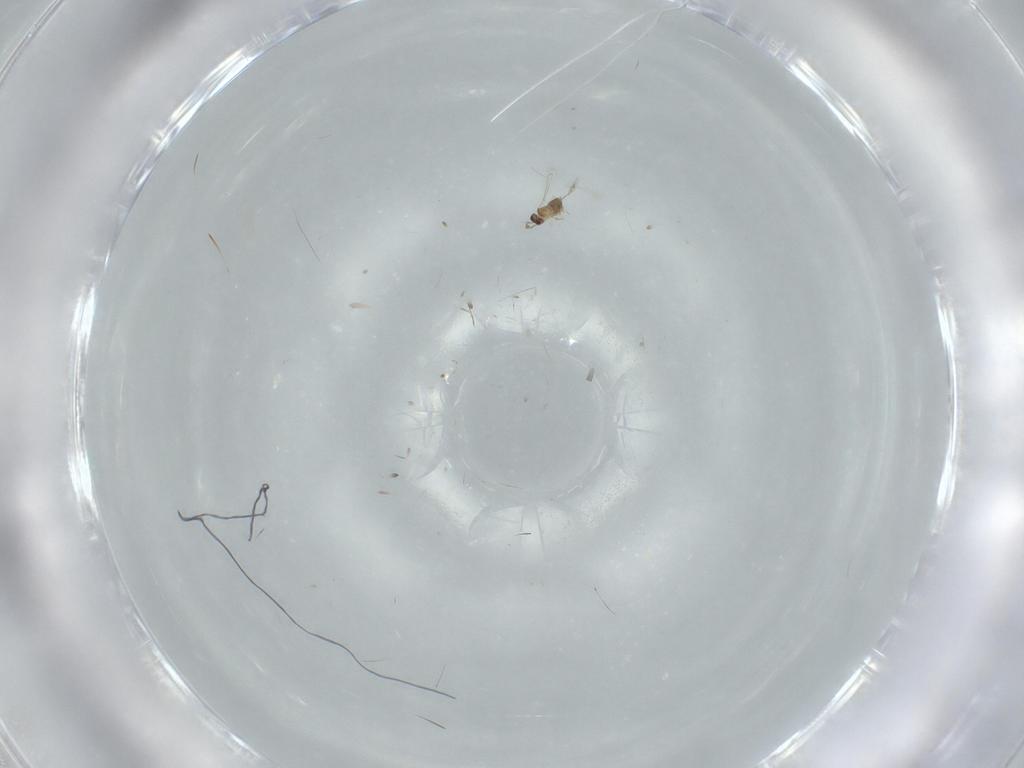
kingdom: Animalia
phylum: Arthropoda
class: Insecta
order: Hymenoptera
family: Mymaridae
